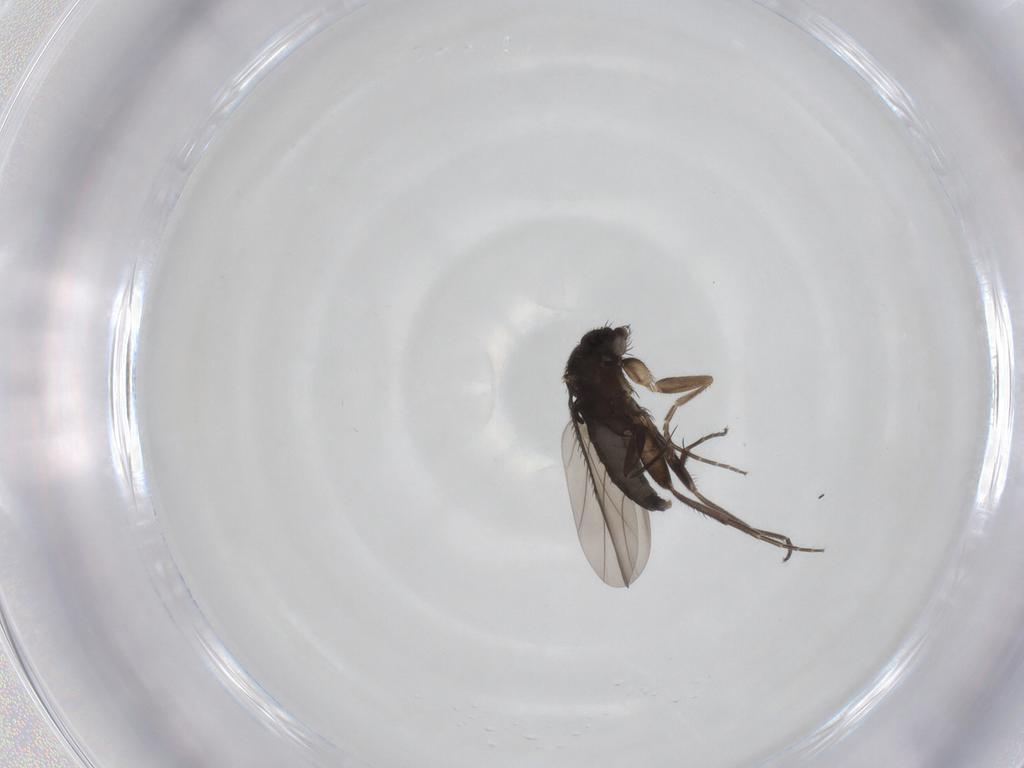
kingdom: Animalia
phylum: Arthropoda
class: Insecta
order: Diptera
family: Phoridae
